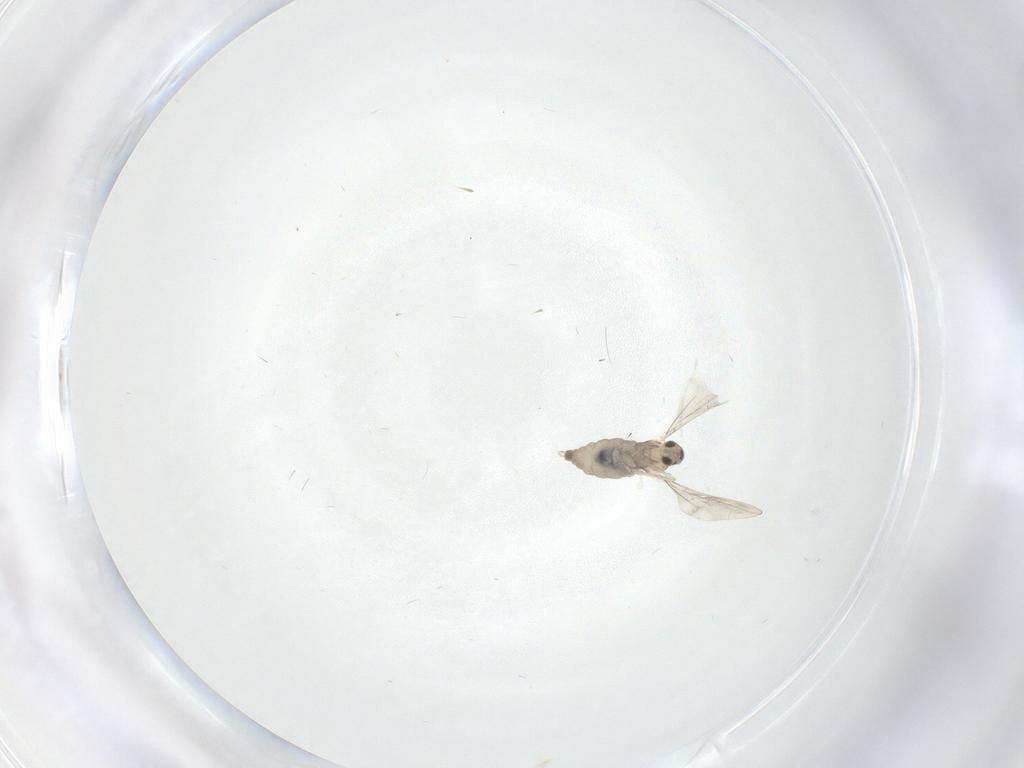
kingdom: Animalia
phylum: Arthropoda
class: Insecta
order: Diptera
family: Cecidomyiidae
